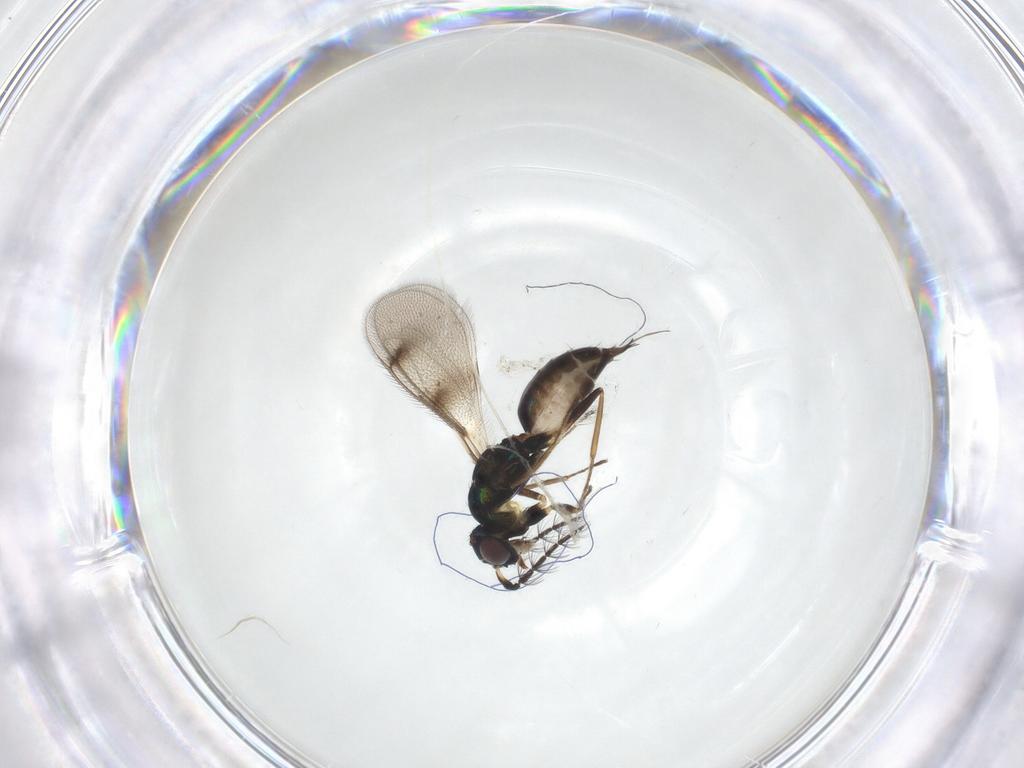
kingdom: Animalia
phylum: Arthropoda
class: Insecta
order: Hymenoptera
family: Eulophidae
